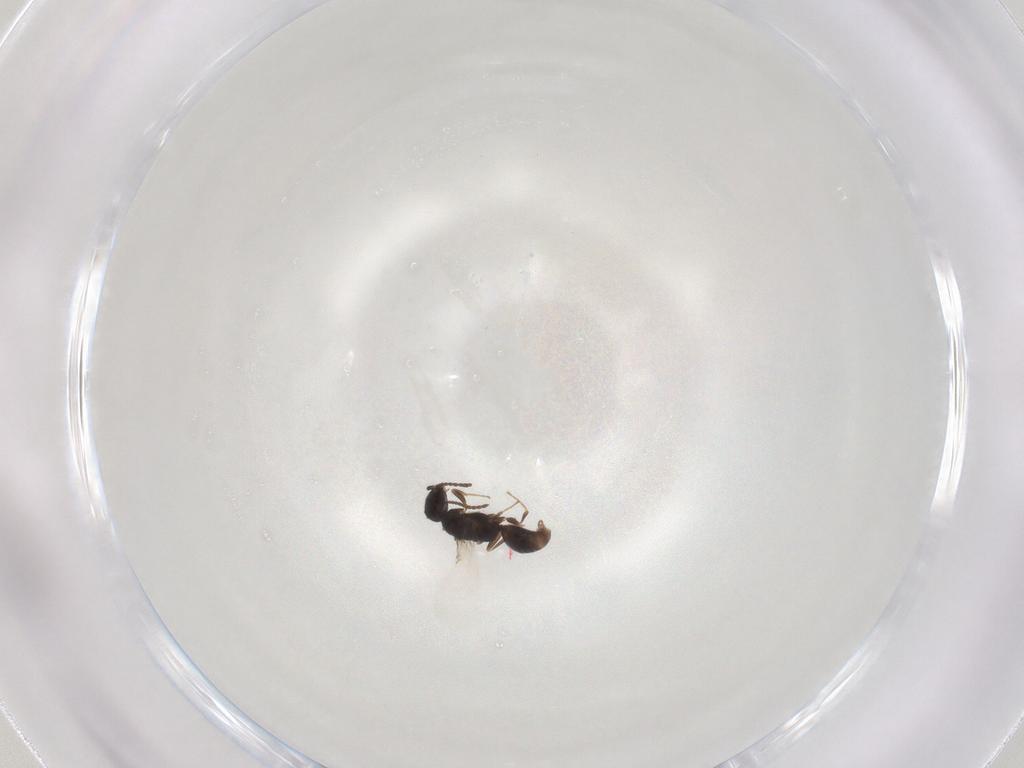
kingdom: Animalia
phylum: Arthropoda
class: Insecta
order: Hymenoptera
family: Bethylidae
